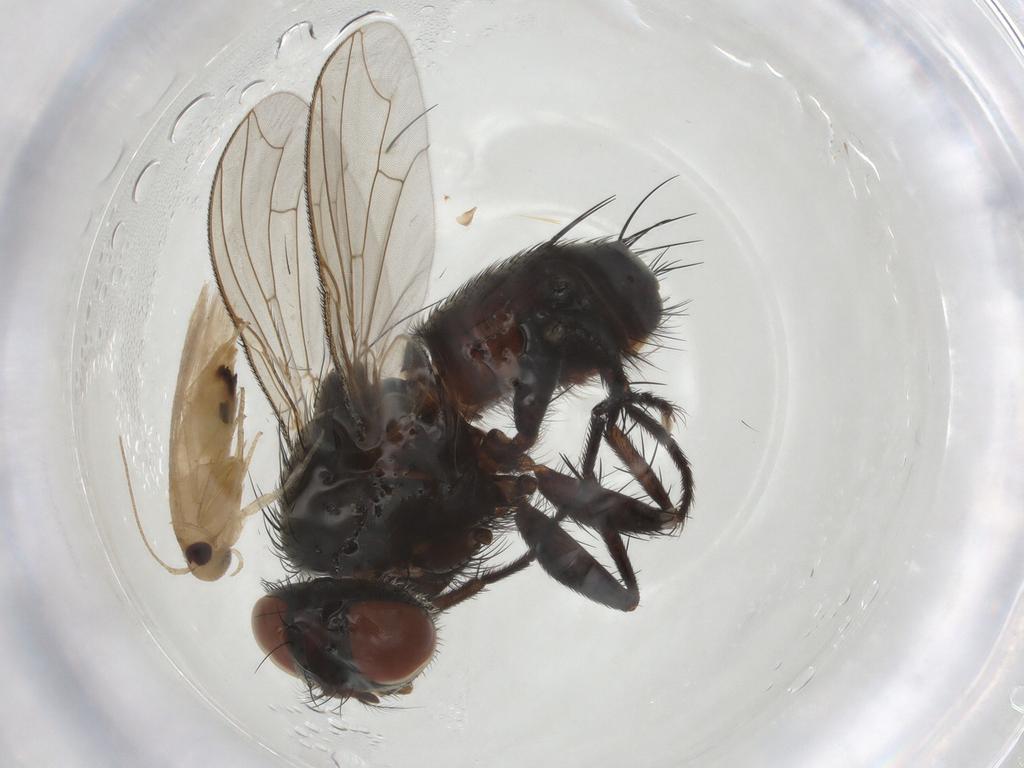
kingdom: Animalia
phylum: Arthropoda
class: Insecta
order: Diptera
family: Sarcophagidae
